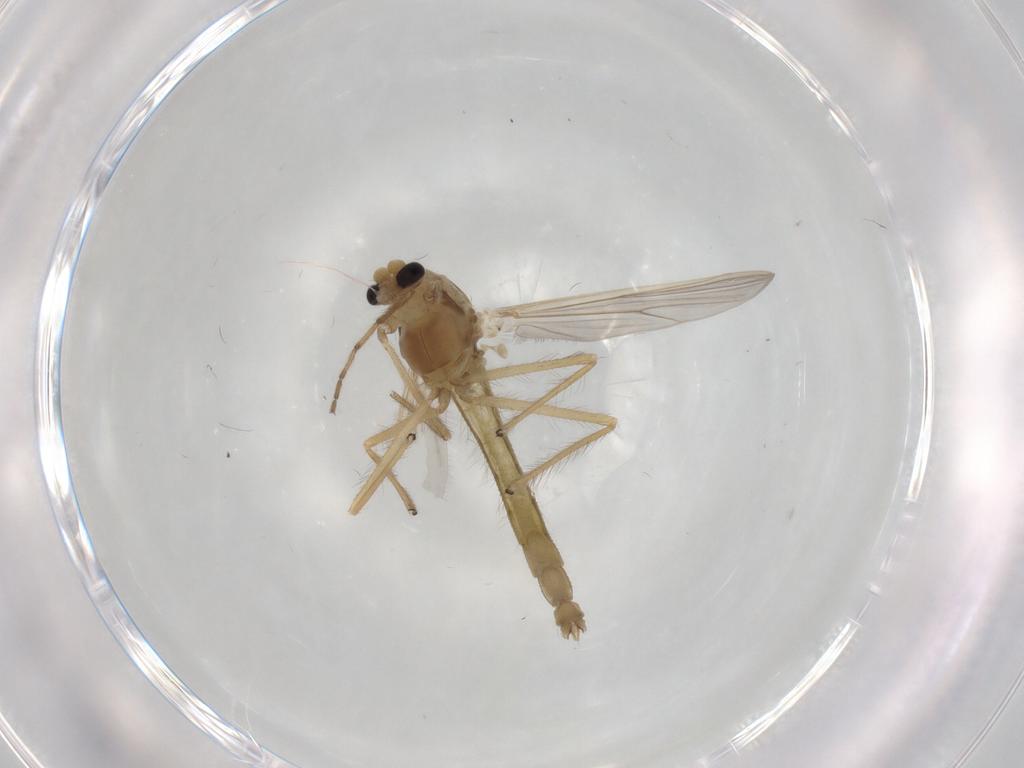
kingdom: Animalia
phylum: Arthropoda
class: Insecta
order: Diptera
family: Chironomidae
